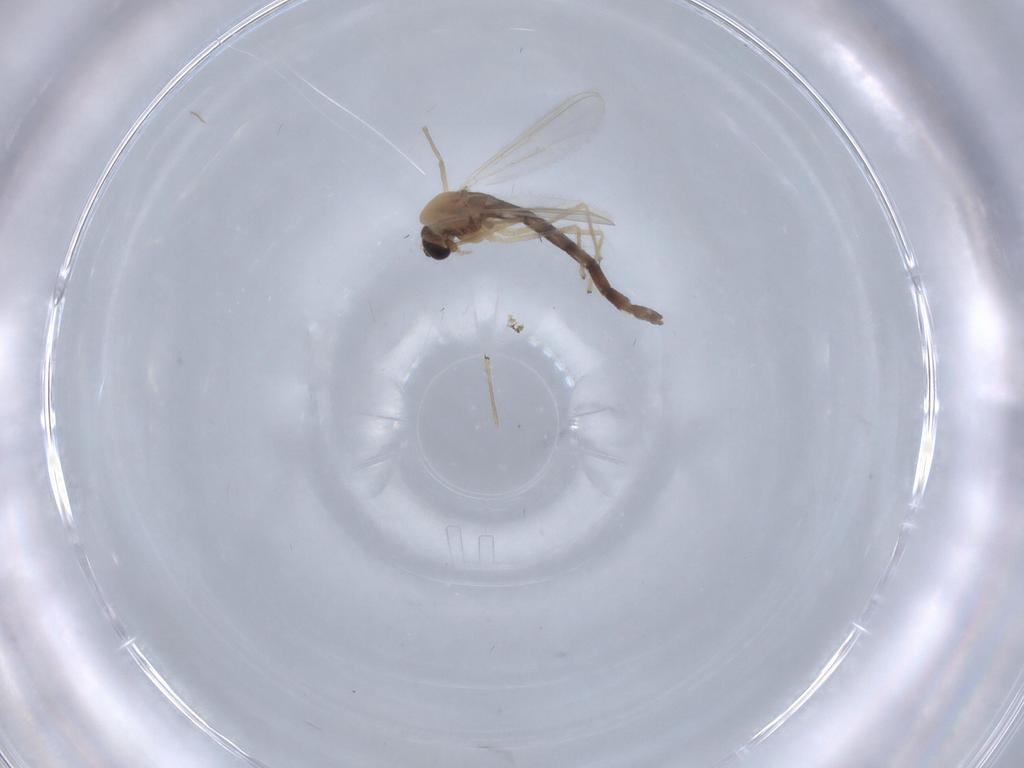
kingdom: Animalia
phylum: Arthropoda
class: Insecta
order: Diptera
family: Chironomidae
